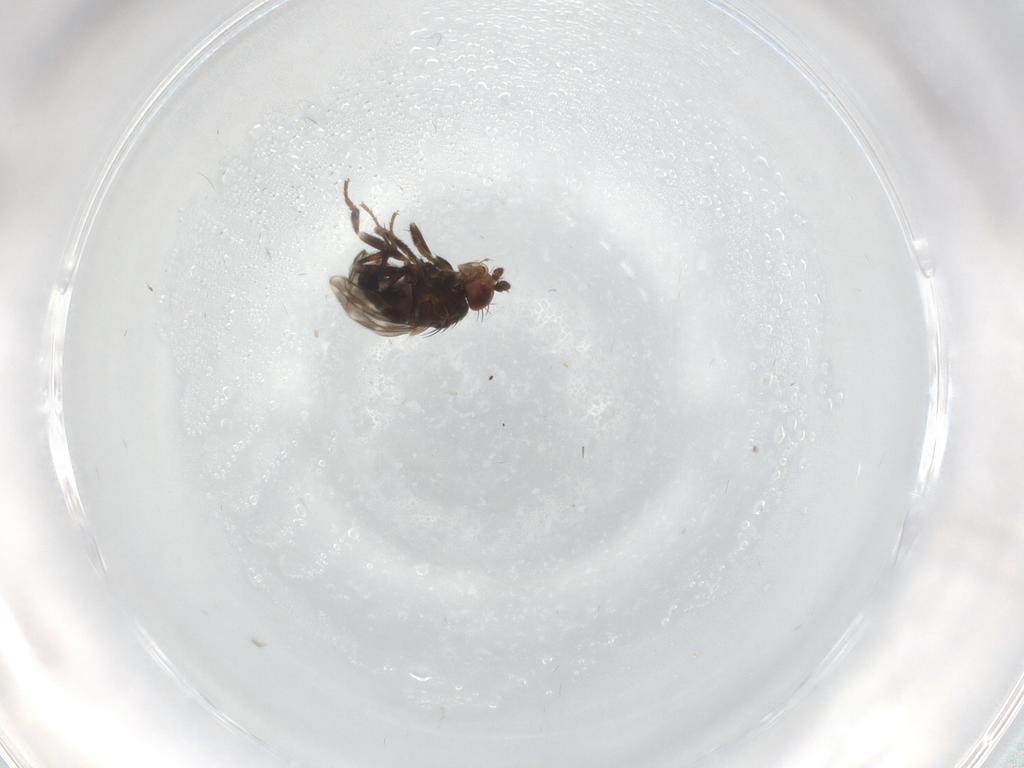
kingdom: Animalia
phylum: Arthropoda
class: Insecta
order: Diptera
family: Sphaeroceridae
